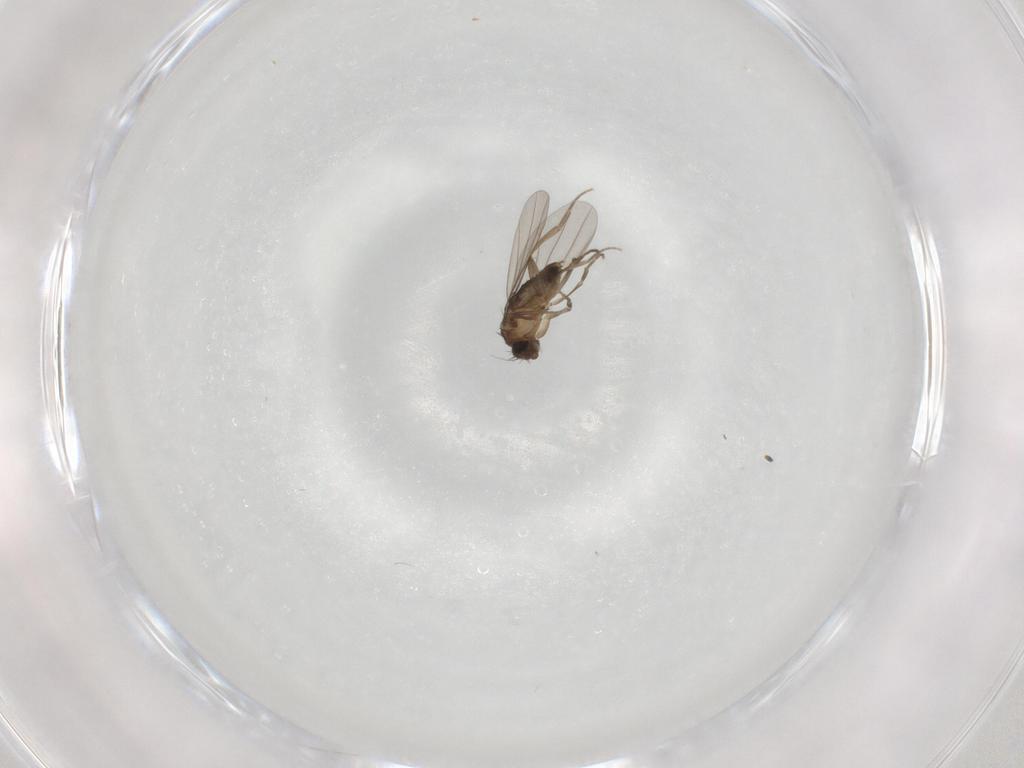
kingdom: Animalia
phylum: Arthropoda
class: Insecta
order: Diptera
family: Phoridae
